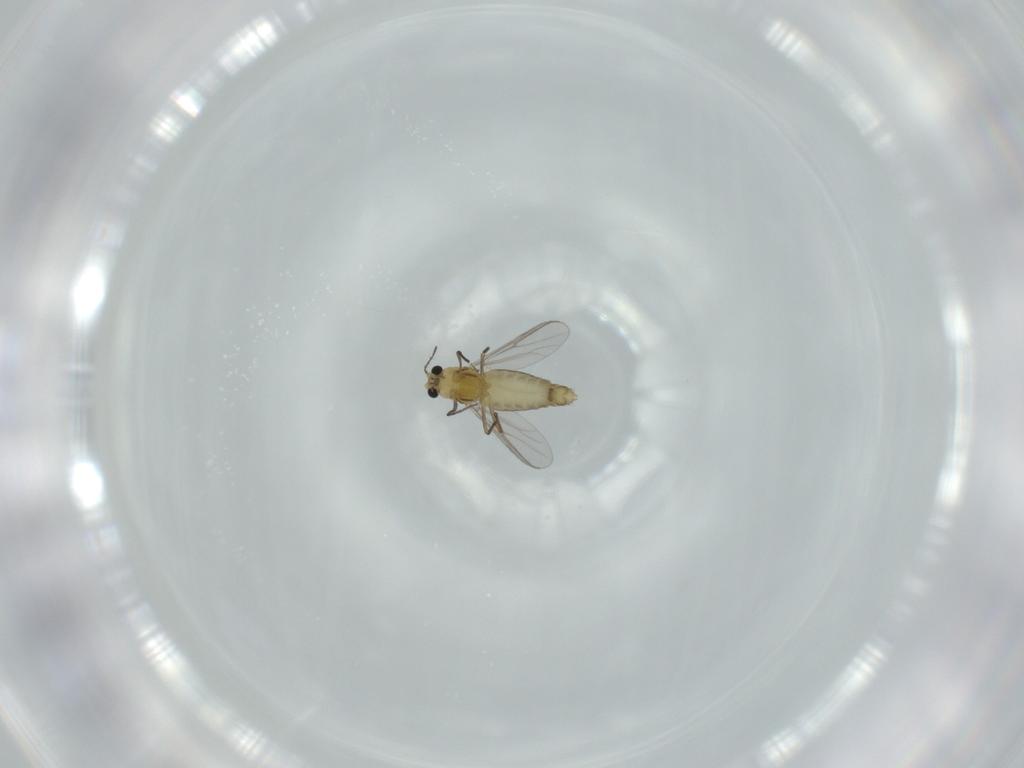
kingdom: Animalia
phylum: Arthropoda
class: Insecta
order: Diptera
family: Chironomidae
